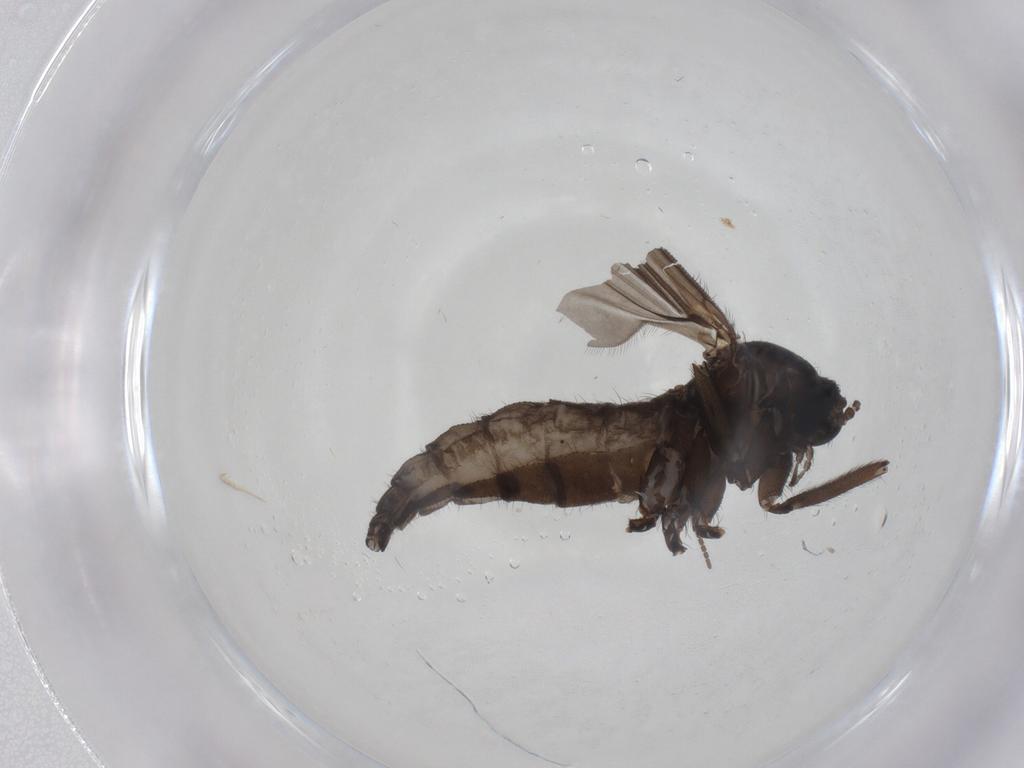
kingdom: Animalia
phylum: Arthropoda
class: Insecta
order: Diptera
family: Sciaridae
